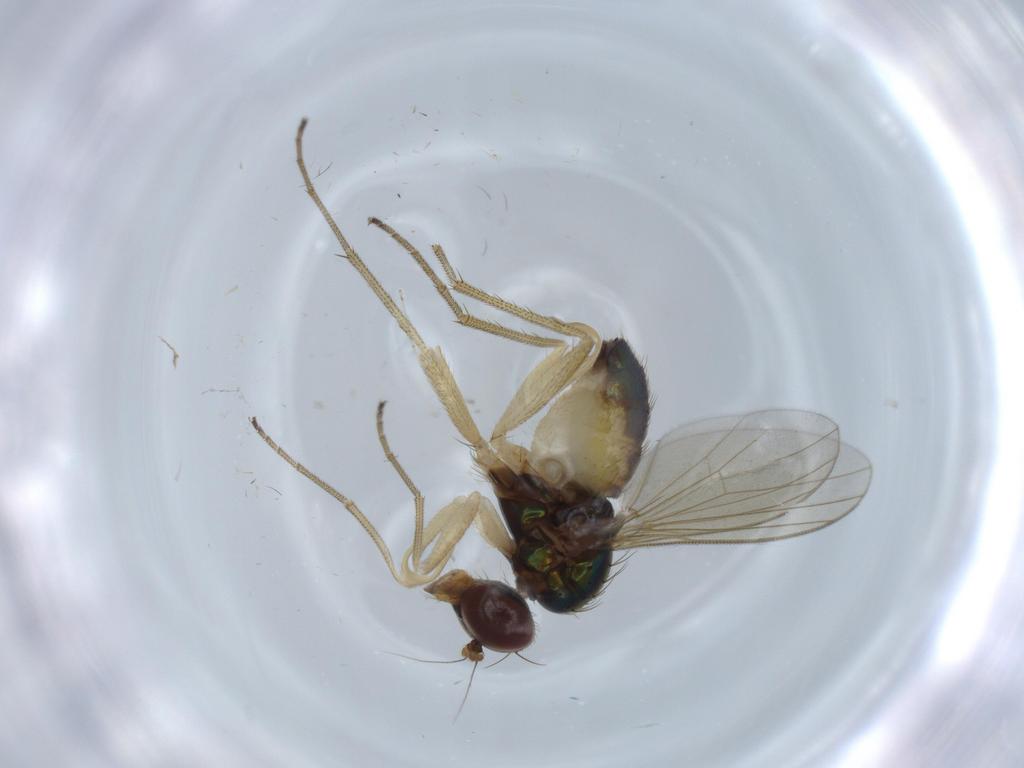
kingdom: Animalia
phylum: Arthropoda
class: Insecta
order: Diptera
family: Dolichopodidae
